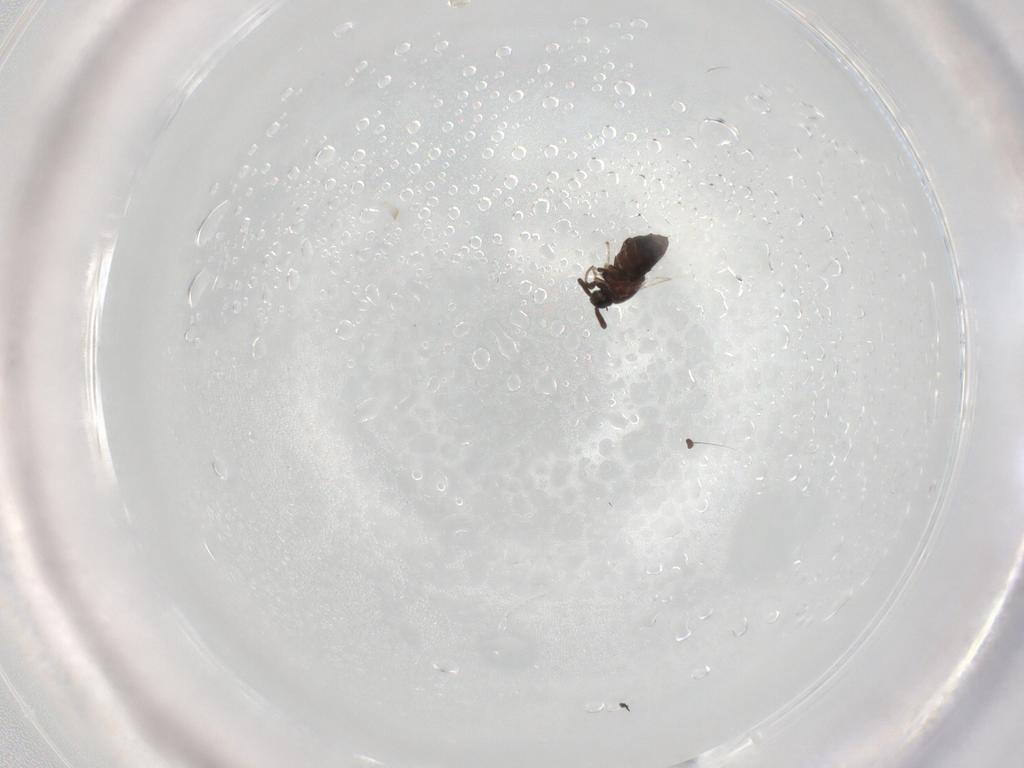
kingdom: Animalia
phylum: Arthropoda
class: Insecta
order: Diptera
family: Scatopsidae
